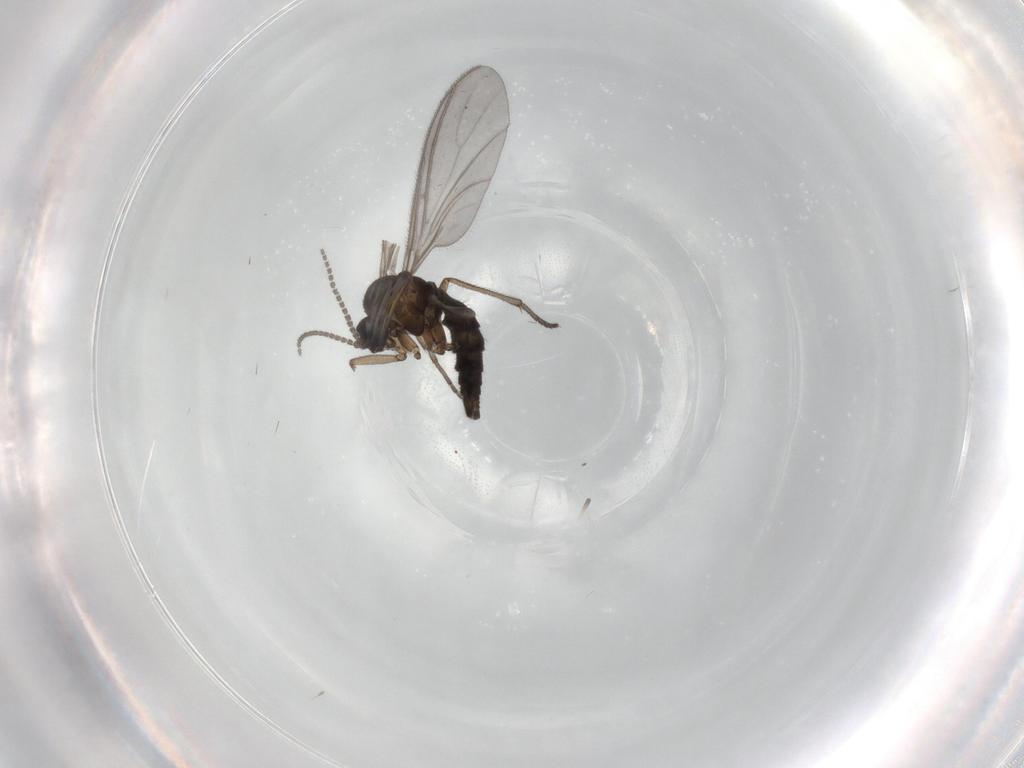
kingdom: Animalia
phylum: Arthropoda
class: Insecta
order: Diptera
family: Sciaridae
